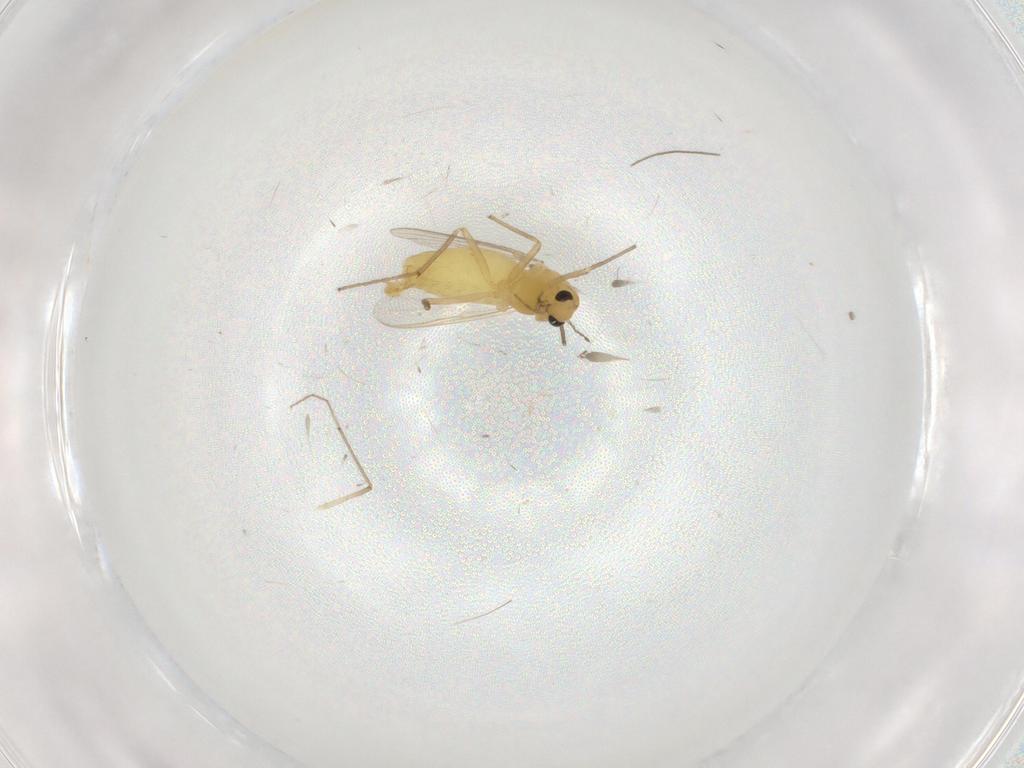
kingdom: Animalia
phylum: Arthropoda
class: Insecta
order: Diptera
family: Chironomidae
